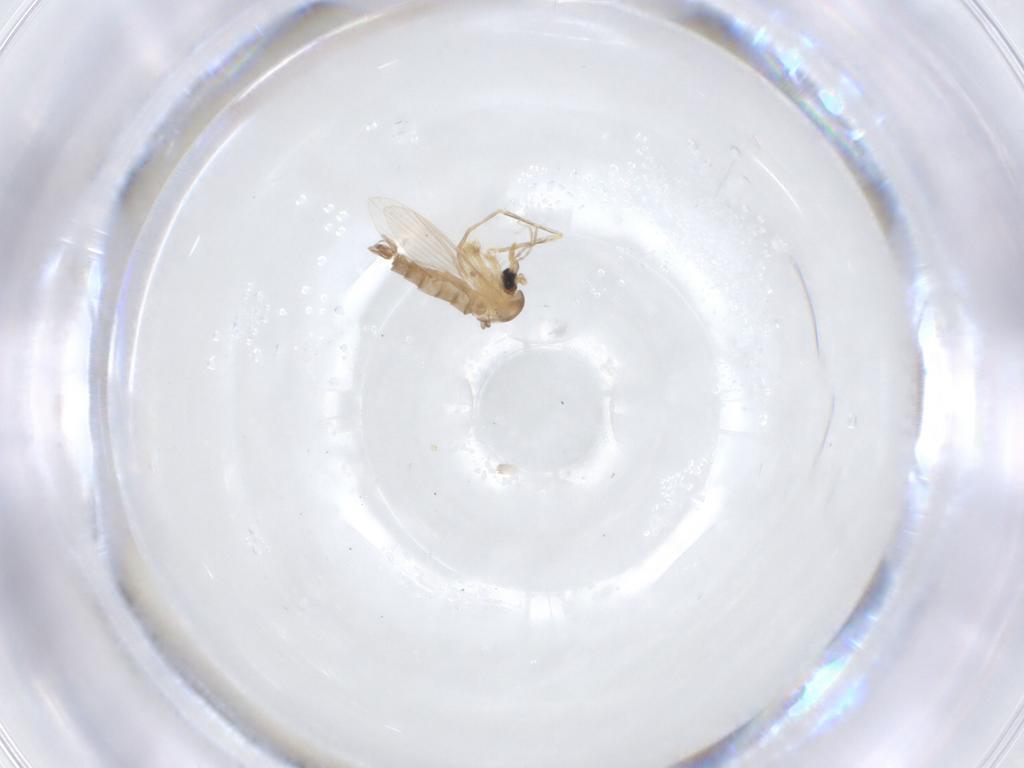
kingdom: Animalia
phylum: Arthropoda
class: Insecta
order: Diptera
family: Psychodidae
